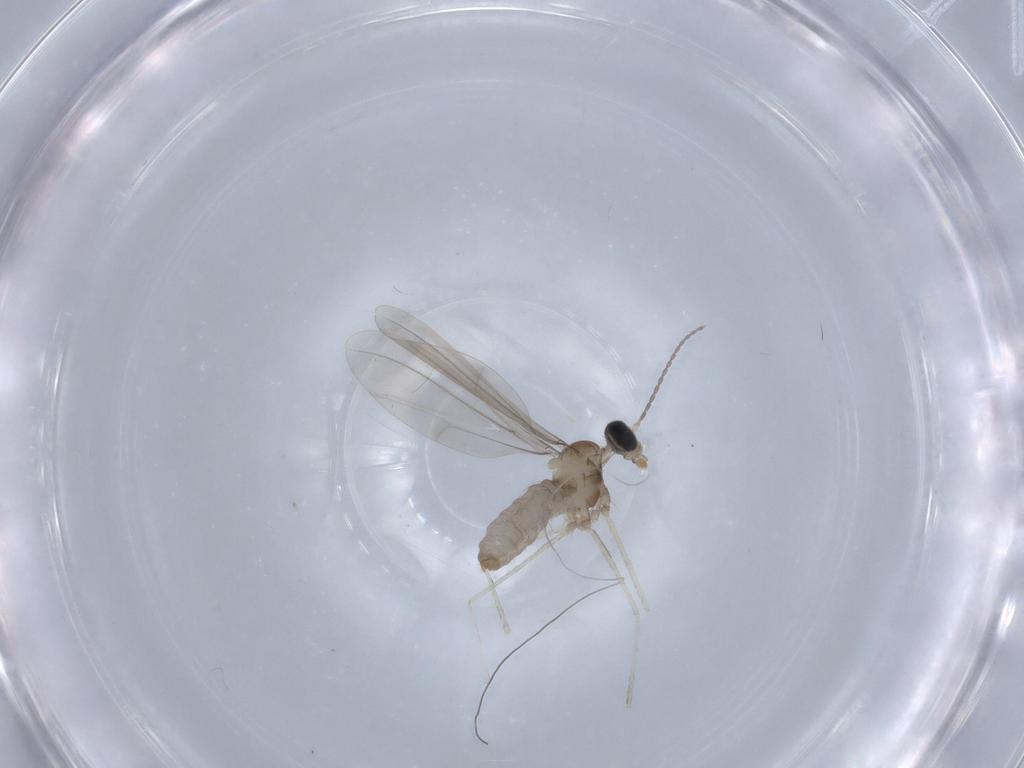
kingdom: Animalia
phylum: Arthropoda
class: Insecta
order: Diptera
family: Cecidomyiidae
